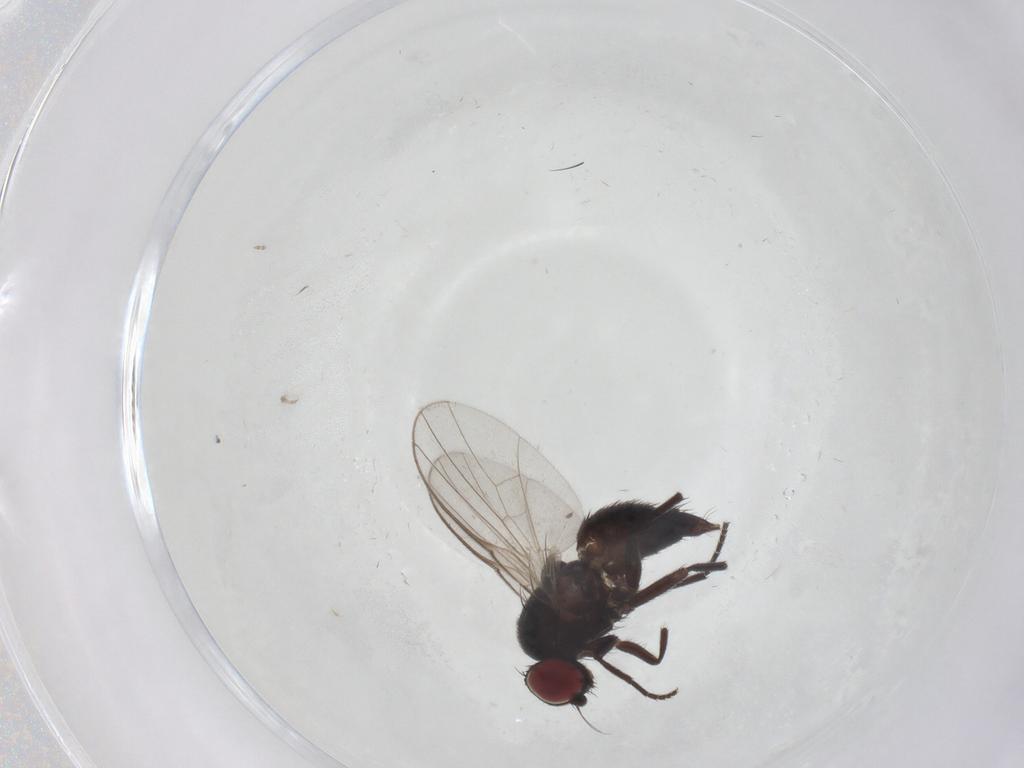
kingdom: Animalia
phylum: Arthropoda
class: Insecta
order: Diptera
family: Agromyzidae
